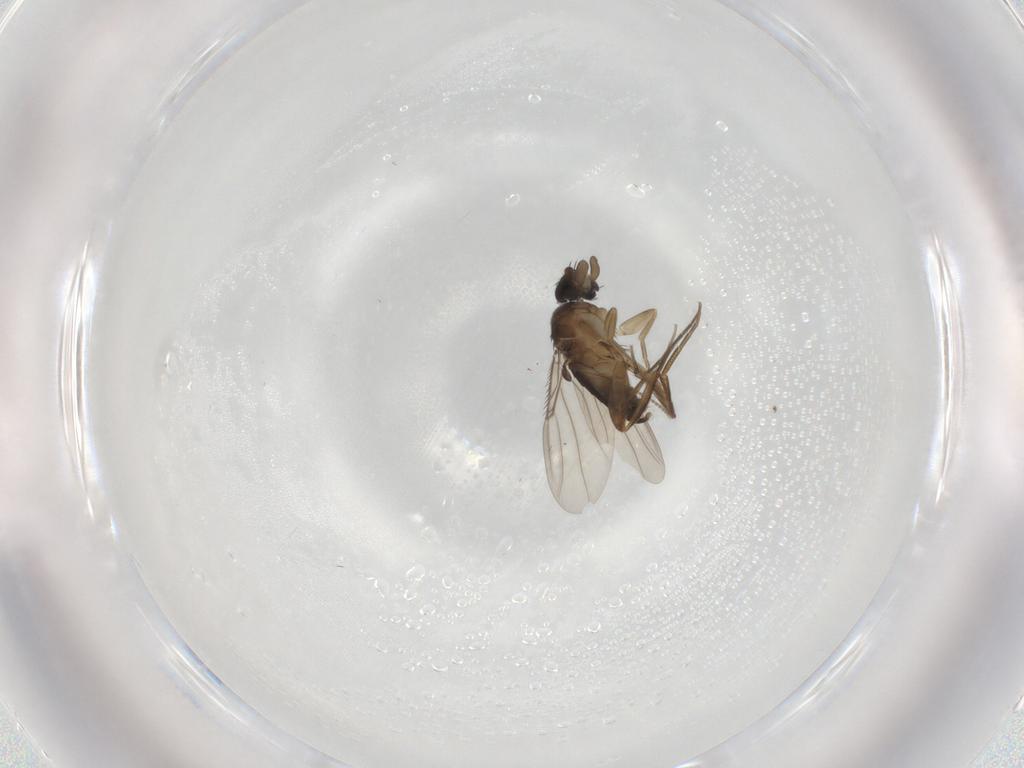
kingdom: Animalia
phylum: Arthropoda
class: Insecta
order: Diptera
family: Phoridae
